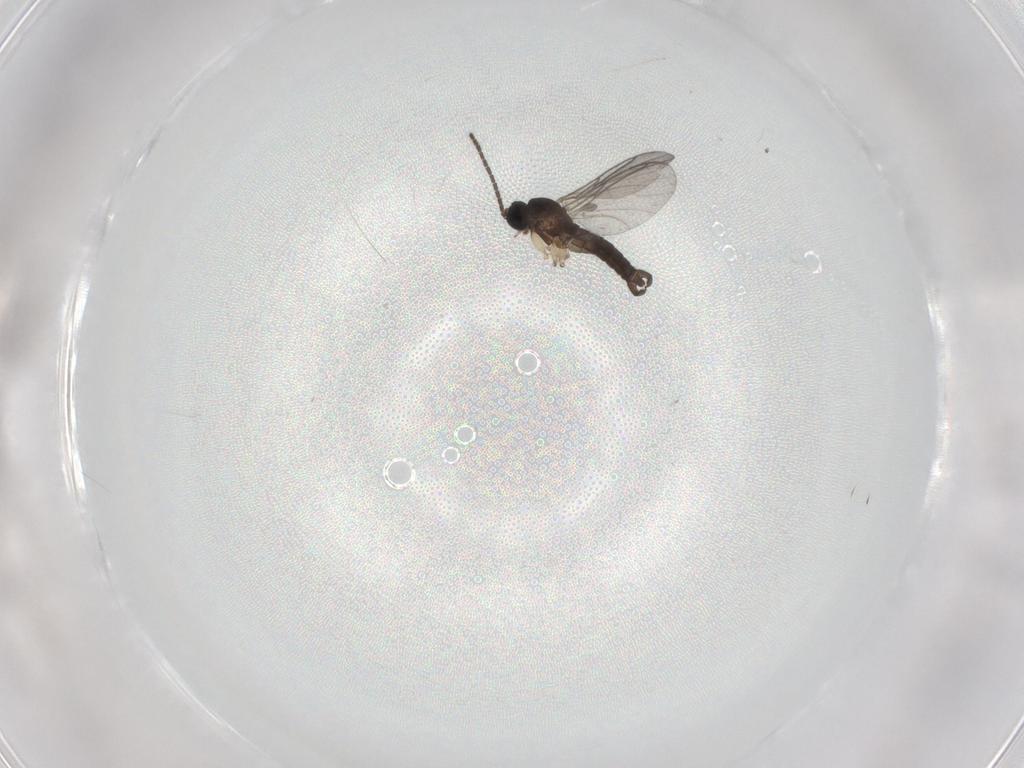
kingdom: Animalia
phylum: Arthropoda
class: Insecta
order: Diptera
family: Sciaridae
